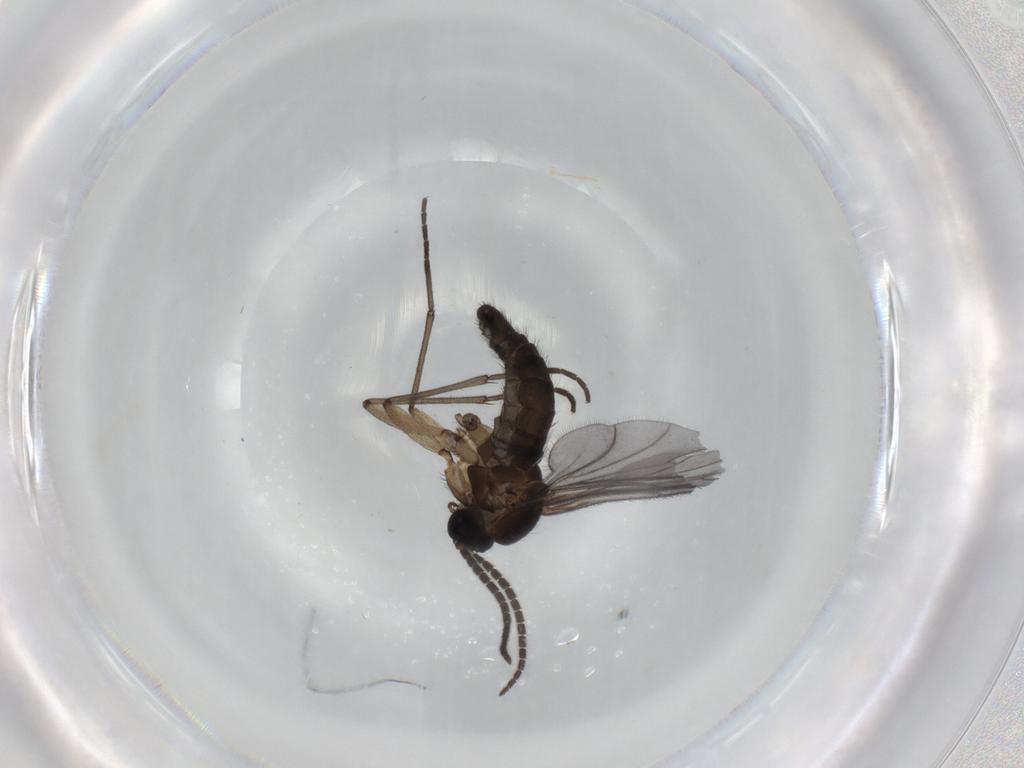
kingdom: Animalia
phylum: Arthropoda
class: Insecta
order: Diptera
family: Sciaridae
